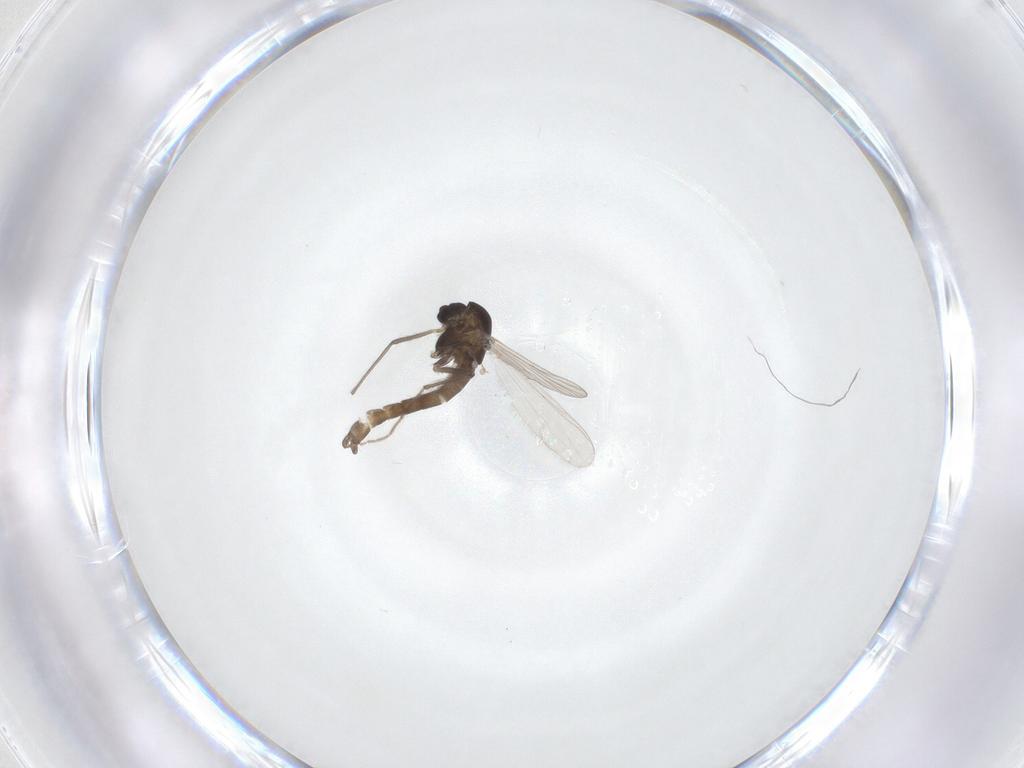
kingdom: Animalia
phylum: Arthropoda
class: Insecta
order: Diptera
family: Chironomidae
